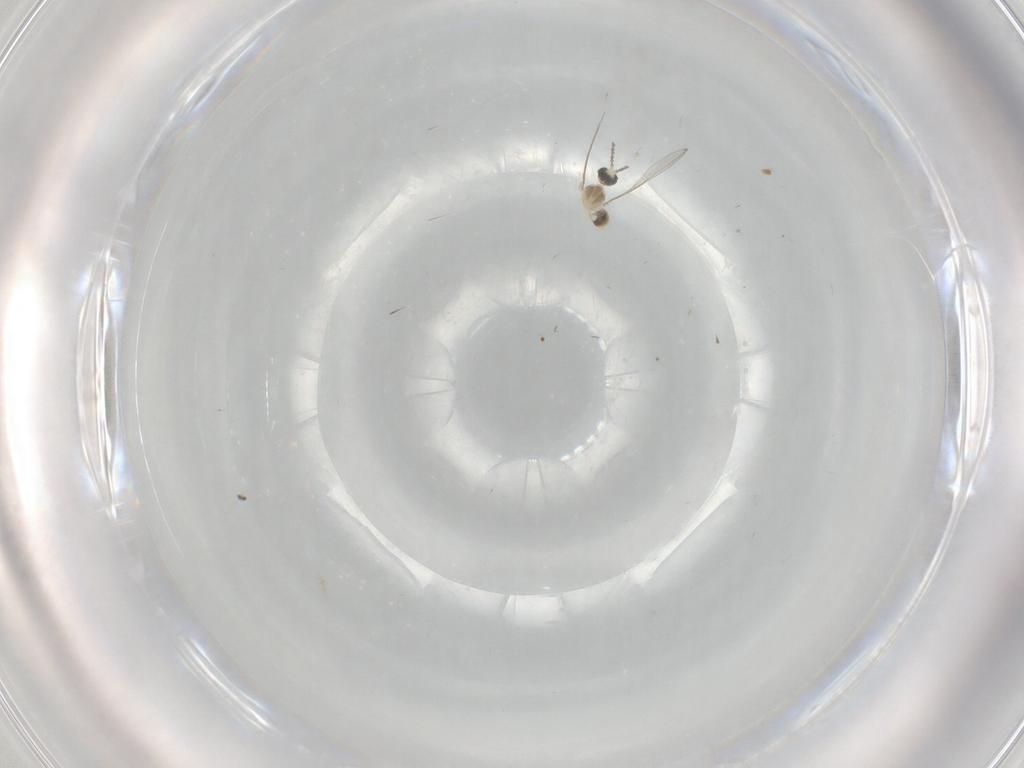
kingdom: Animalia
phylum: Arthropoda
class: Insecta
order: Diptera
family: Cecidomyiidae
